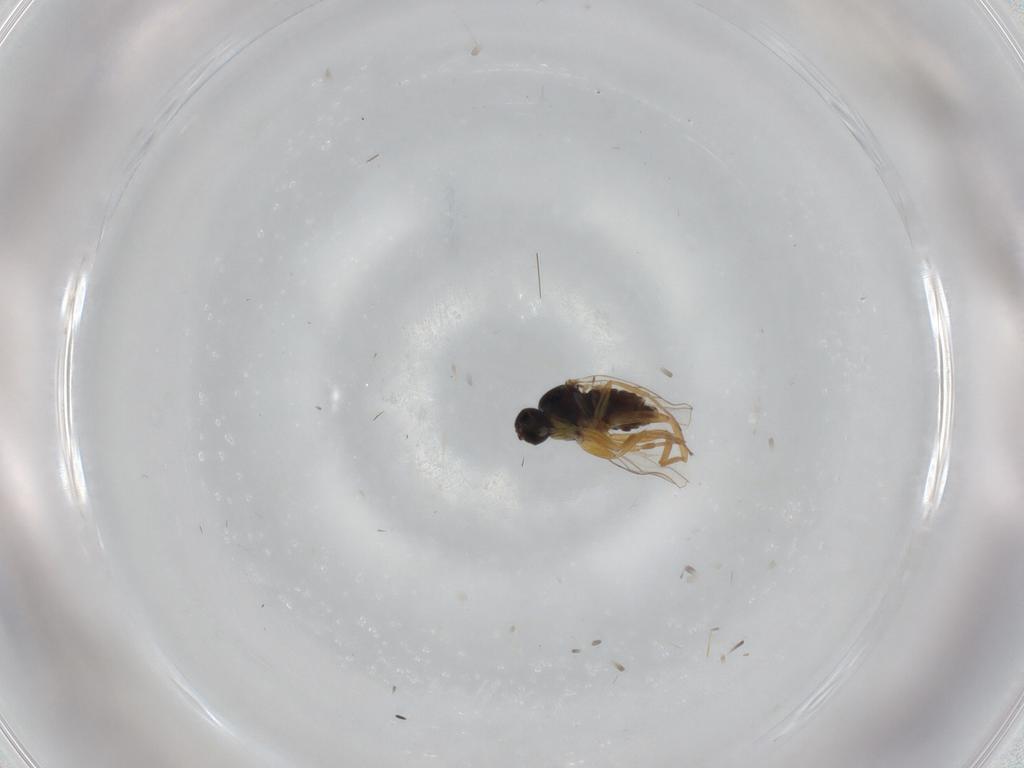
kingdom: Animalia
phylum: Arthropoda
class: Insecta
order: Diptera
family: Hybotidae
